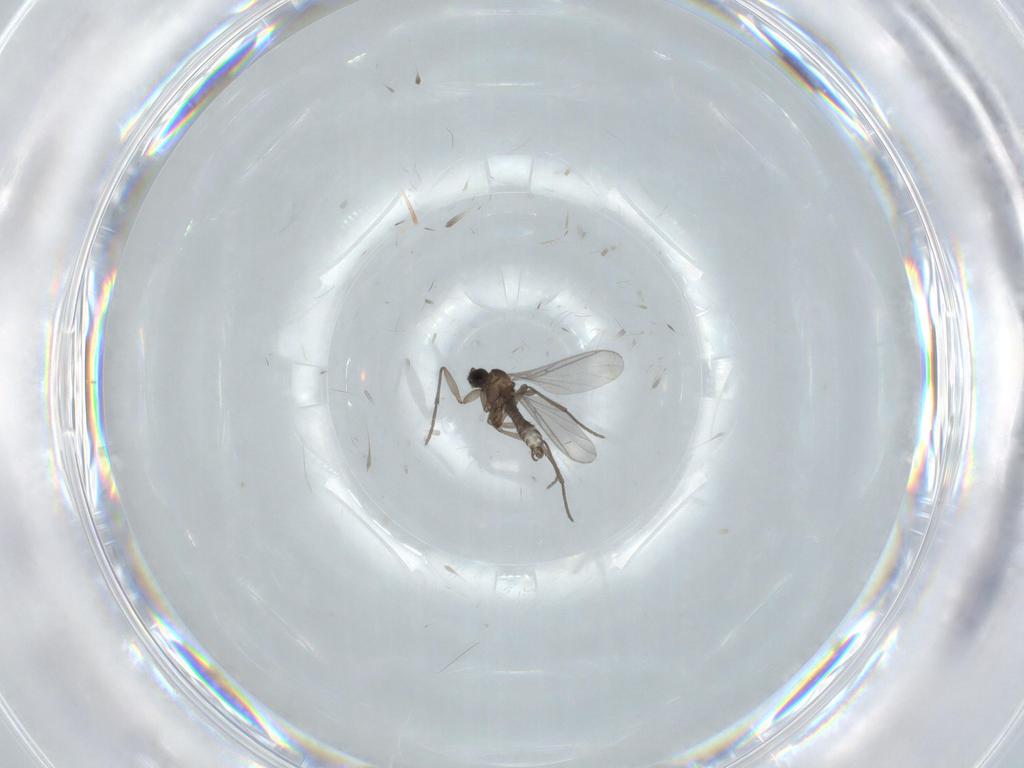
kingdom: Animalia
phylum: Arthropoda
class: Insecta
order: Diptera
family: Sciaridae
